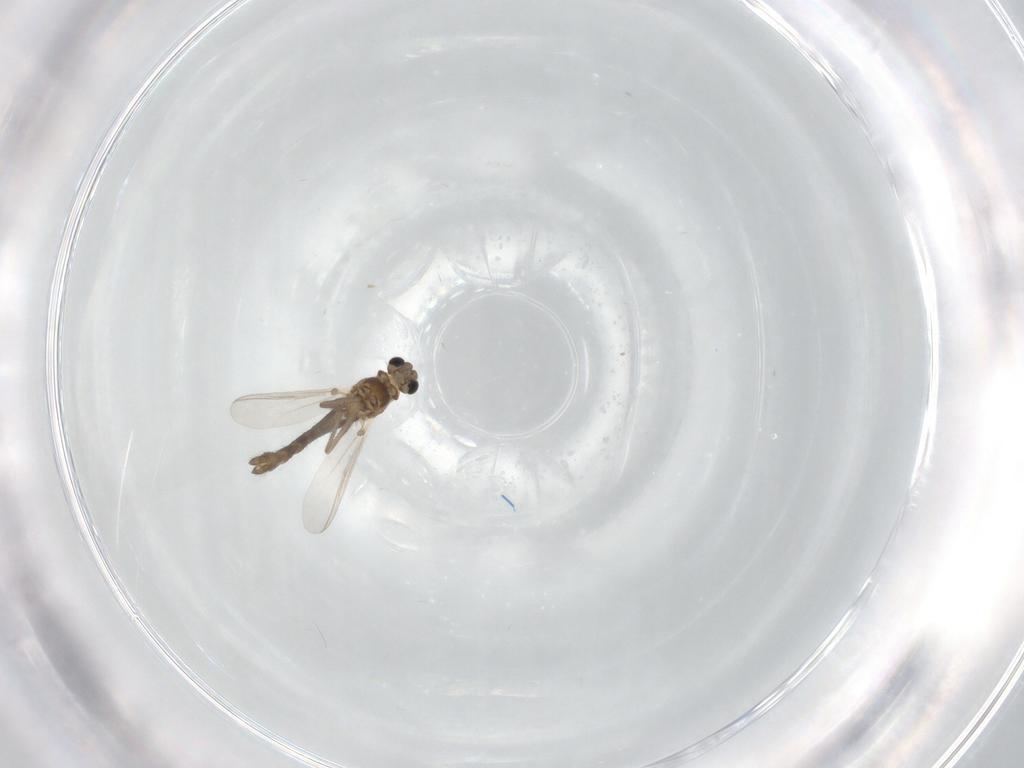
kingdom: Animalia
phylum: Arthropoda
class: Insecta
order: Diptera
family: Chironomidae
